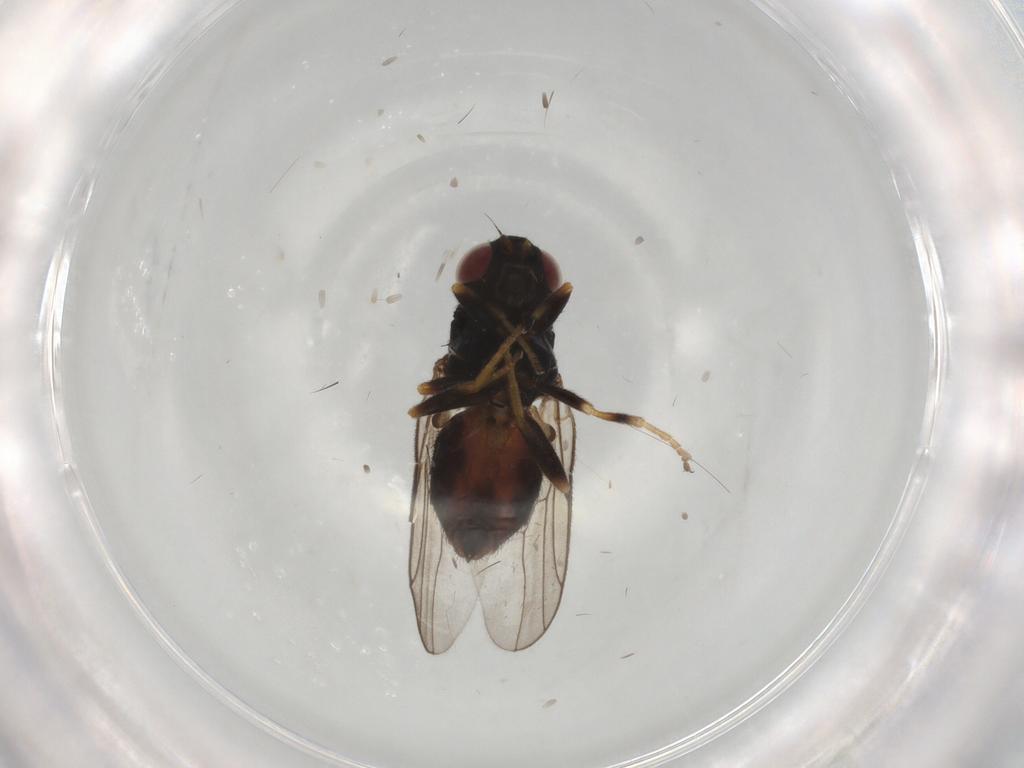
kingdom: Animalia
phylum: Arthropoda
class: Insecta
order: Diptera
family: Chloropidae
